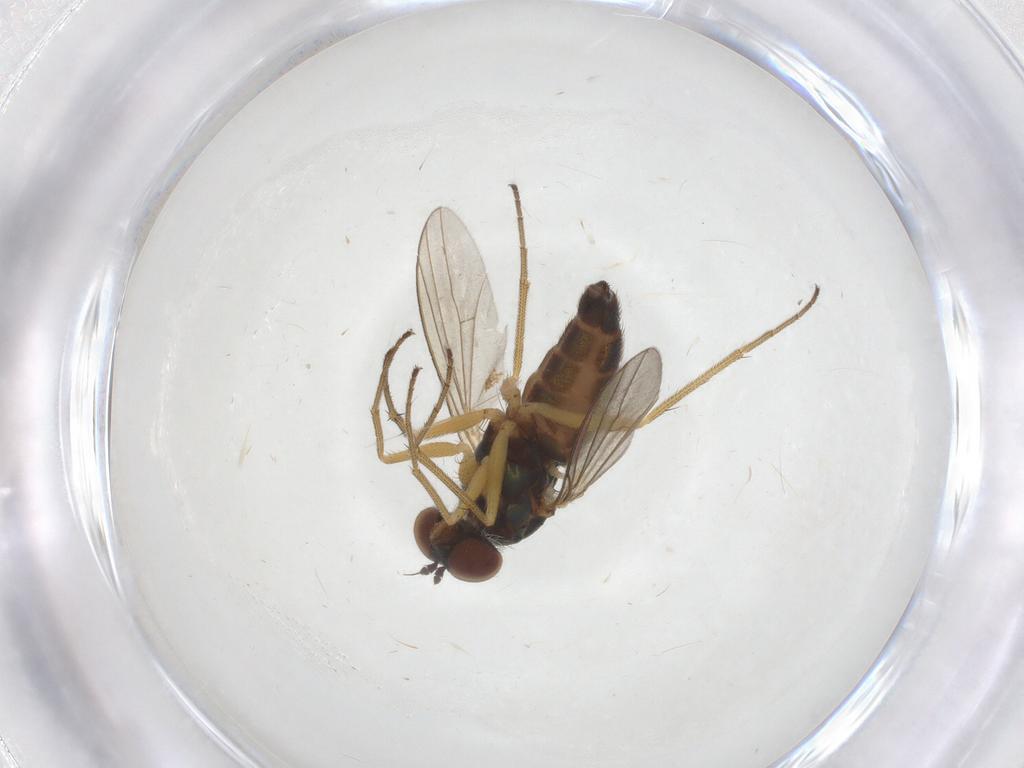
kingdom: Animalia
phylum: Arthropoda
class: Insecta
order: Diptera
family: Dolichopodidae
